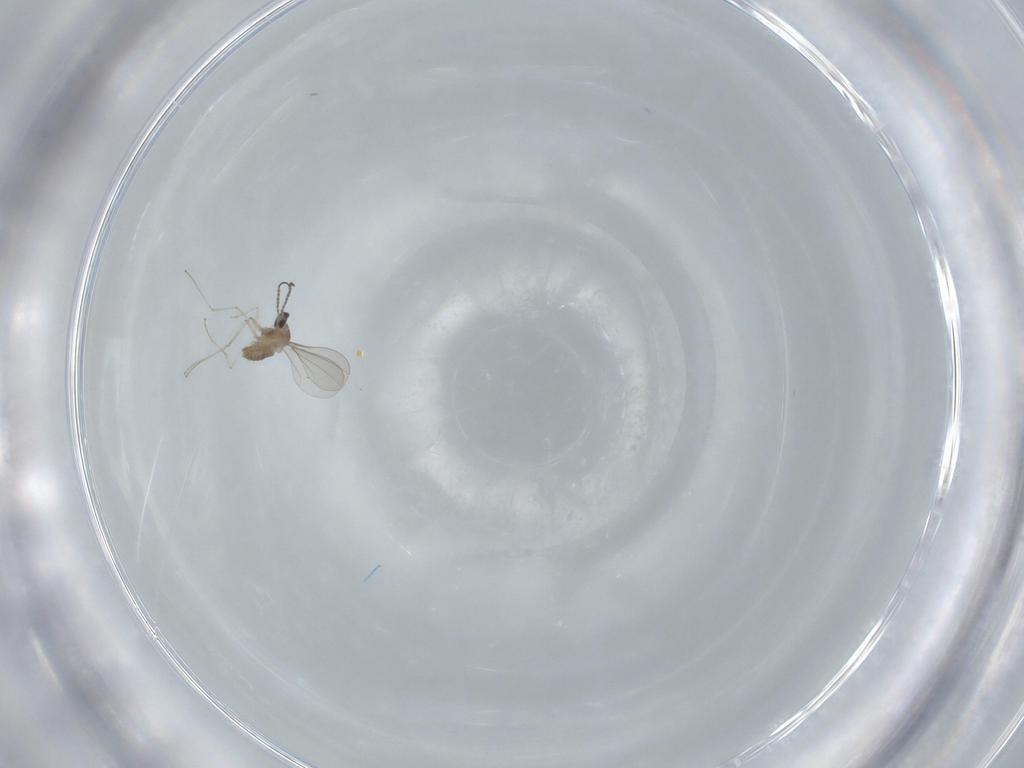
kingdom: Animalia
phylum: Arthropoda
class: Insecta
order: Diptera
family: Cecidomyiidae
